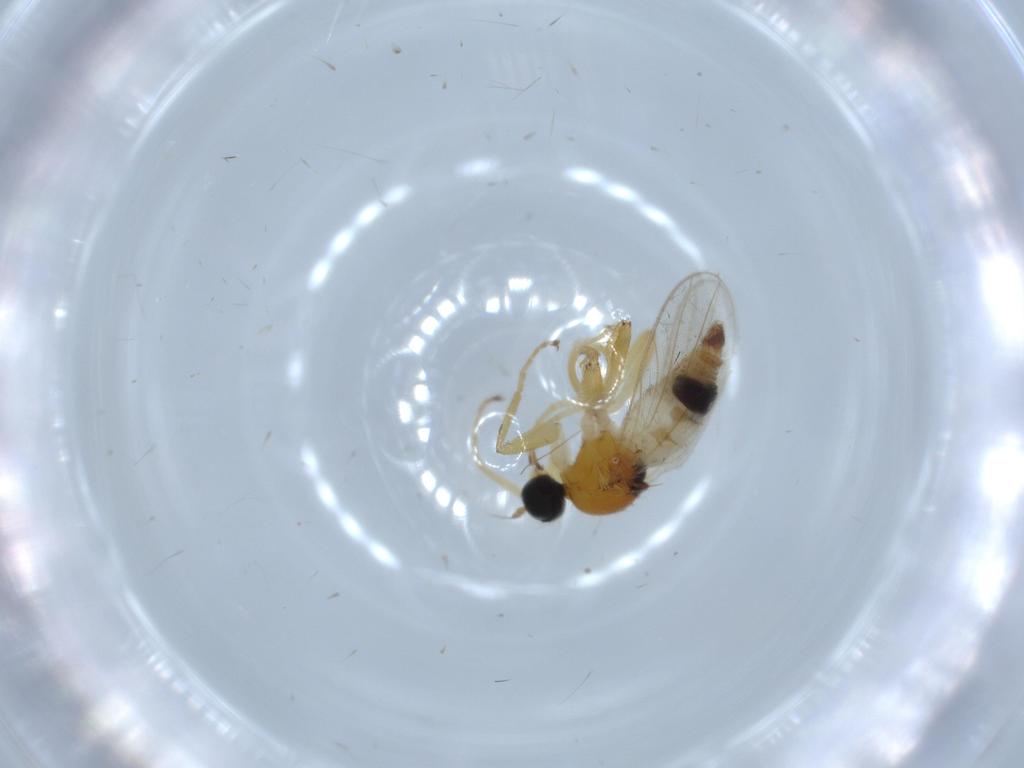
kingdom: Animalia
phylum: Arthropoda
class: Insecta
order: Diptera
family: Hybotidae
